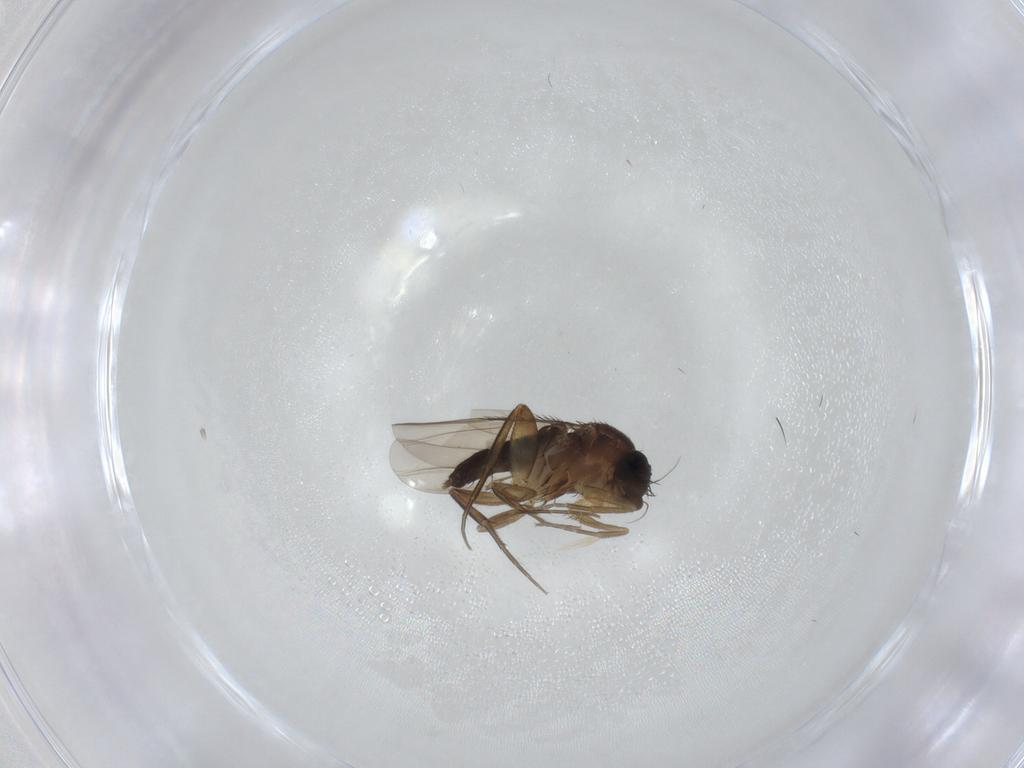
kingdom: Animalia
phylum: Arthropoda
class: Insecta
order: Diptera
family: Phoridae
